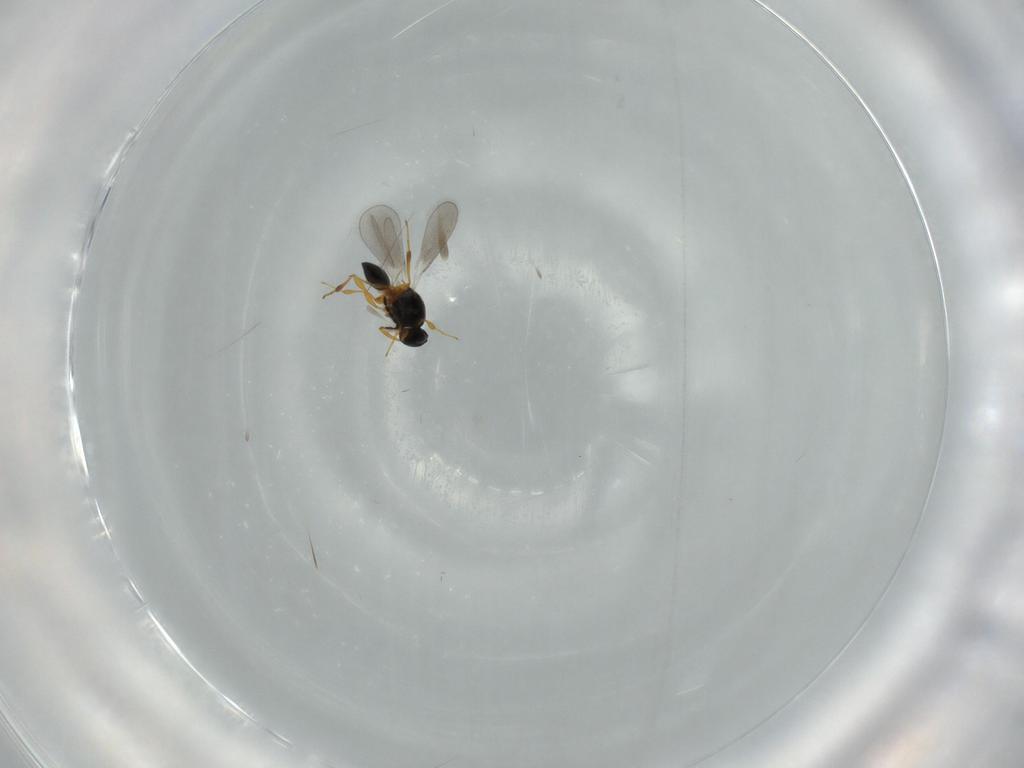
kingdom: Animalia
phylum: Arthropoda
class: Insecta
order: Hymenoptera
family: Platygastridae
